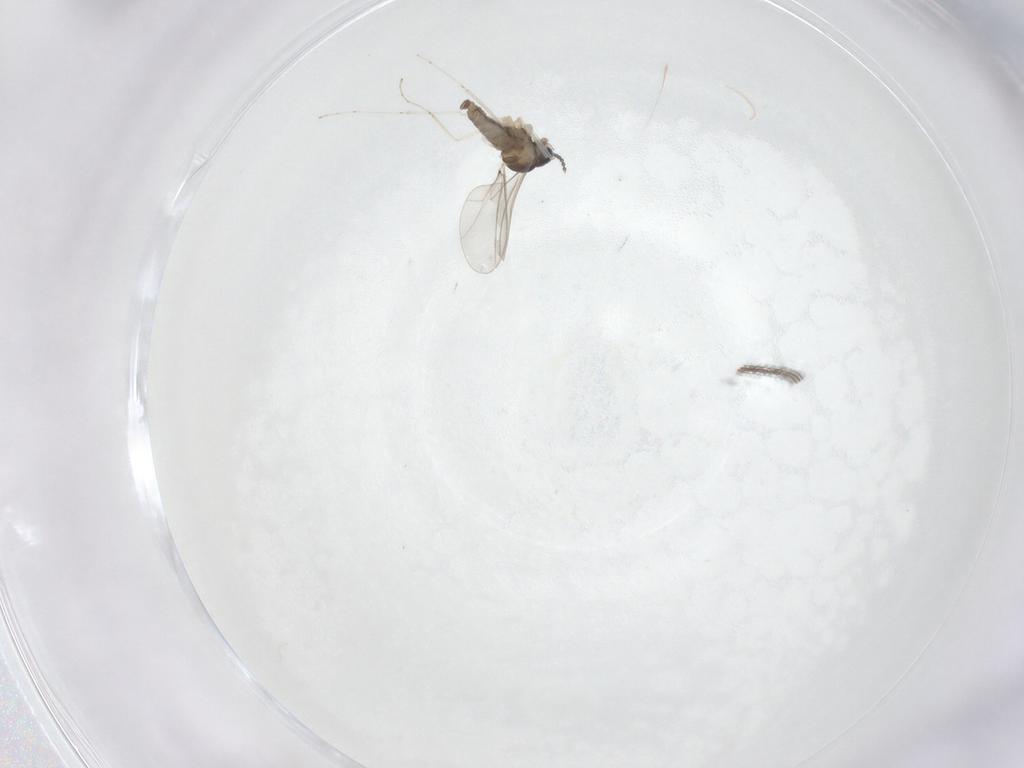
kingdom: Animalia
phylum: Arthropoda
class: Insecta
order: Diptera
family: Cecidomyiidae
